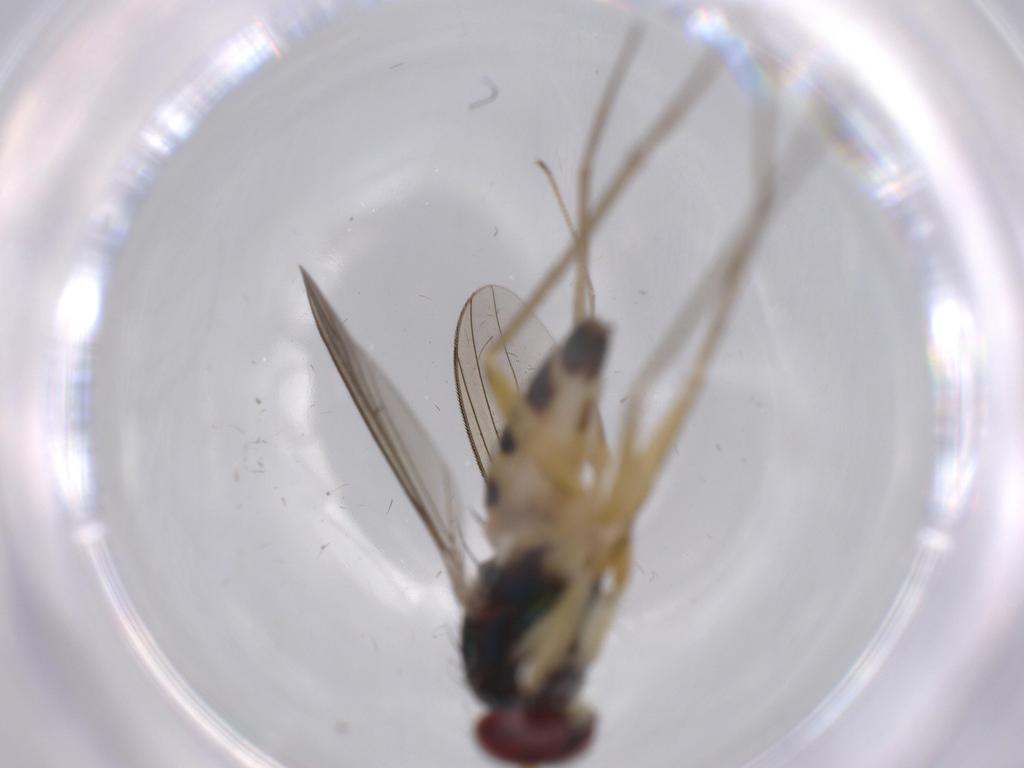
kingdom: Animalia
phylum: Arthropoda
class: Insecta
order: Diptera
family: Dolichopodidae
